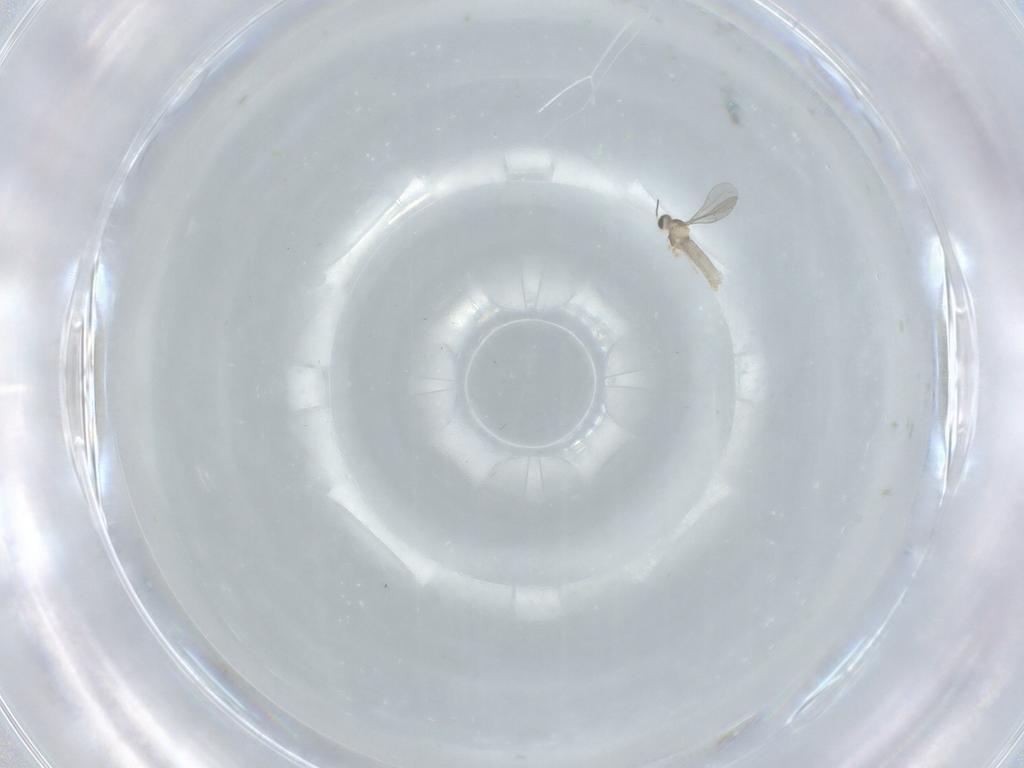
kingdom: Animalia
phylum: Arthropoda
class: Insecta
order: Diptera
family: Cecidomyiidae
